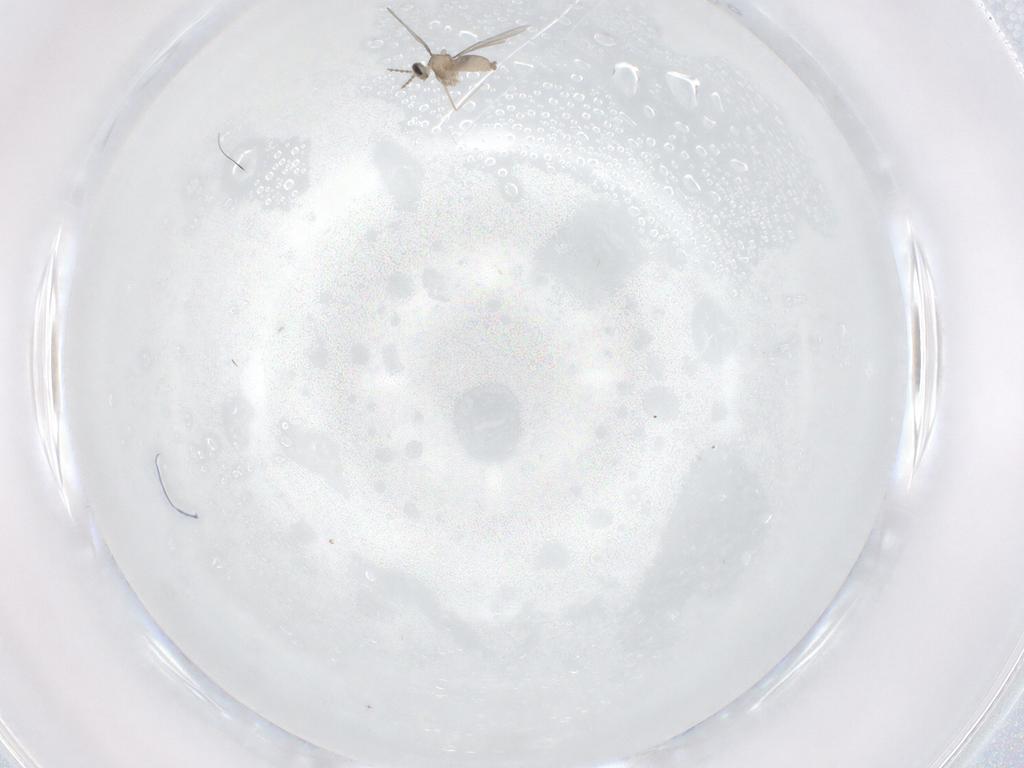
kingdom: Animalia
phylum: Arthropoda
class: Insecta
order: Diptera
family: Cecidomyiidae
